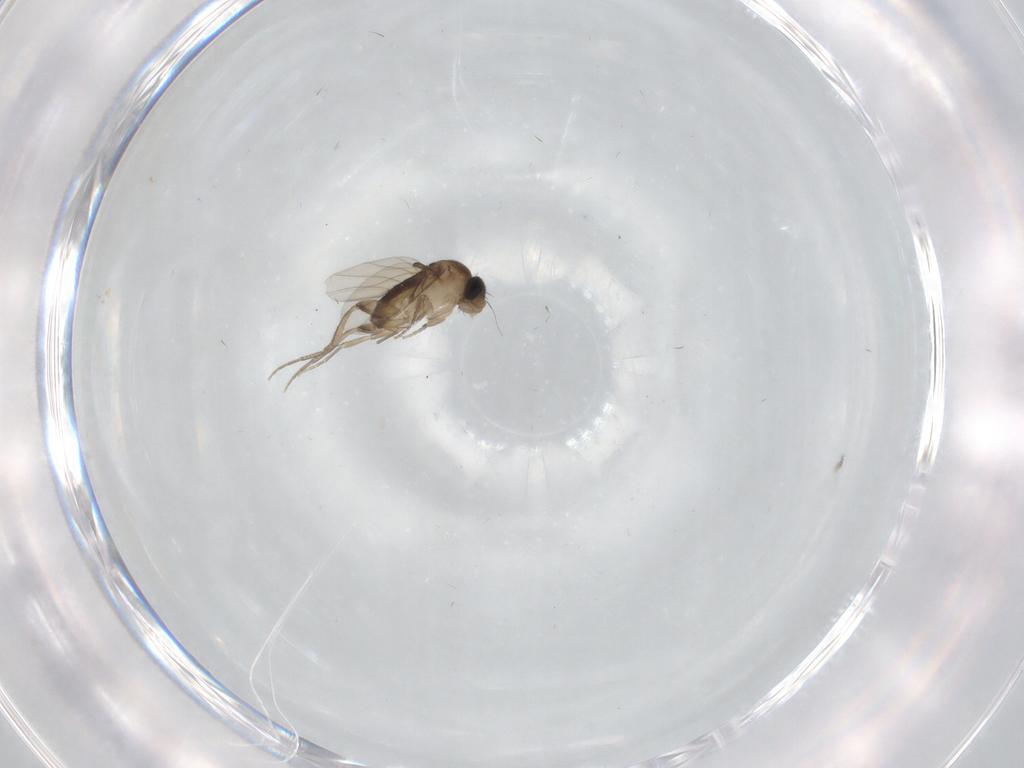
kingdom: Animalia
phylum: Arthropoda
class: Insecta
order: Diptera
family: Phoridae
